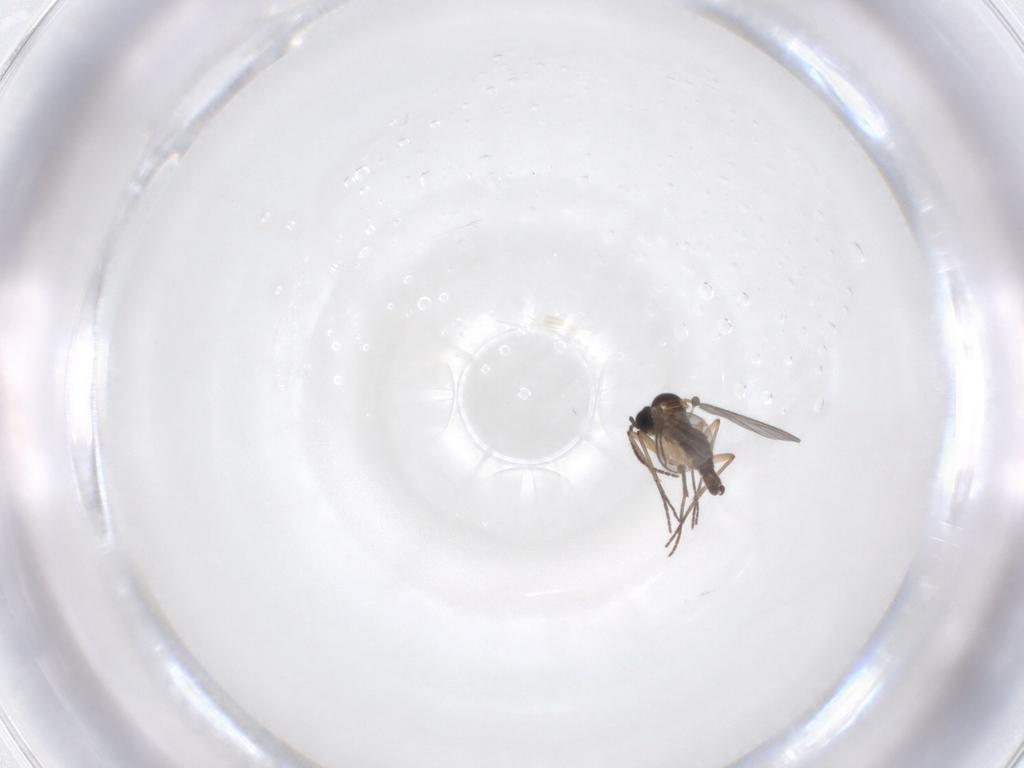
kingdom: Animalia
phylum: Arthropoda
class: Insecta
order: Diptera
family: Sciaridae
